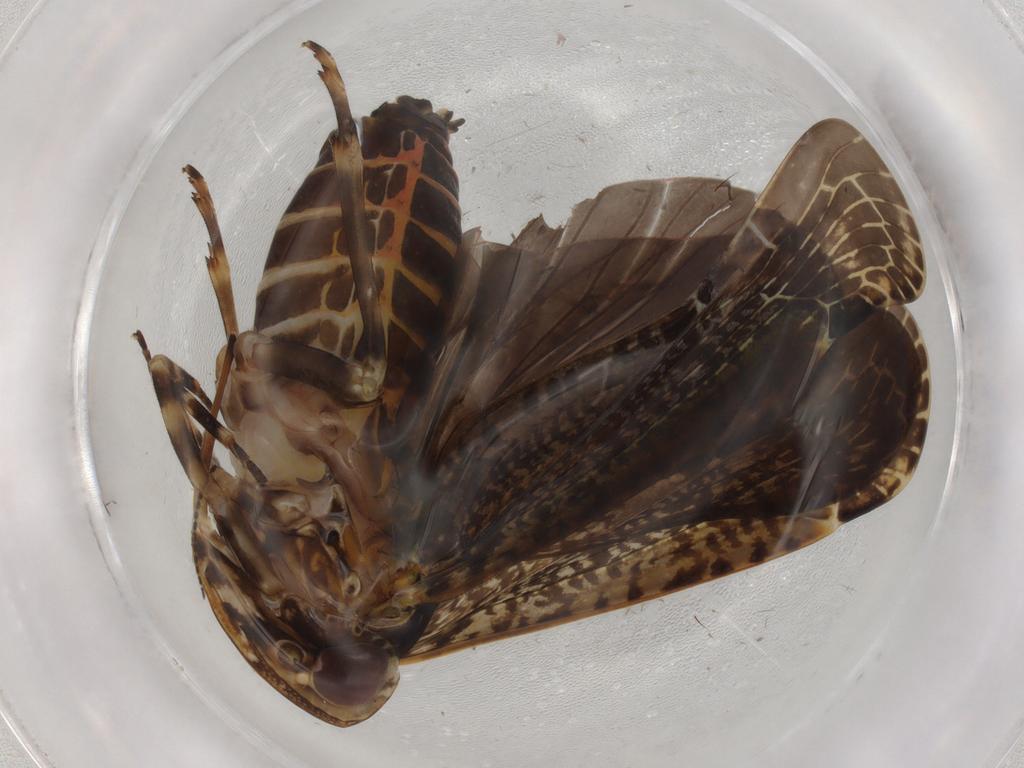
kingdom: Animalia
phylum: Arthropoda
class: Insecta
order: Hemiptera
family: Cicadellidae
